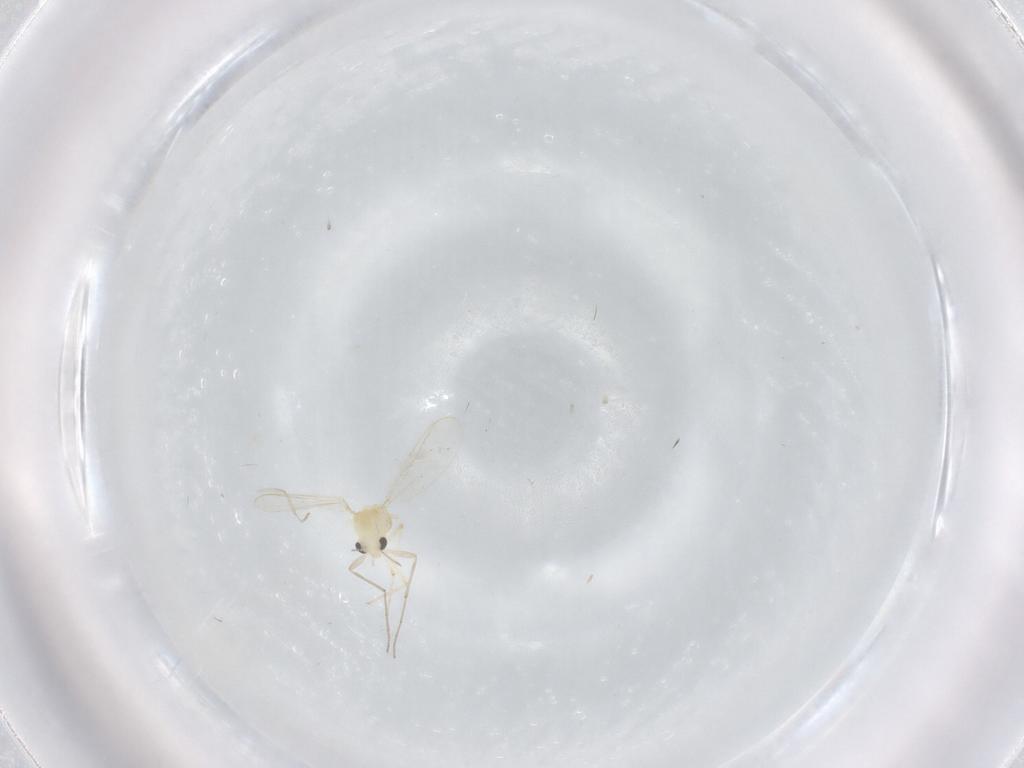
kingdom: Animalia
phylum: Arthropoda
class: Insecta
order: Diptera
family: Chironomidae
